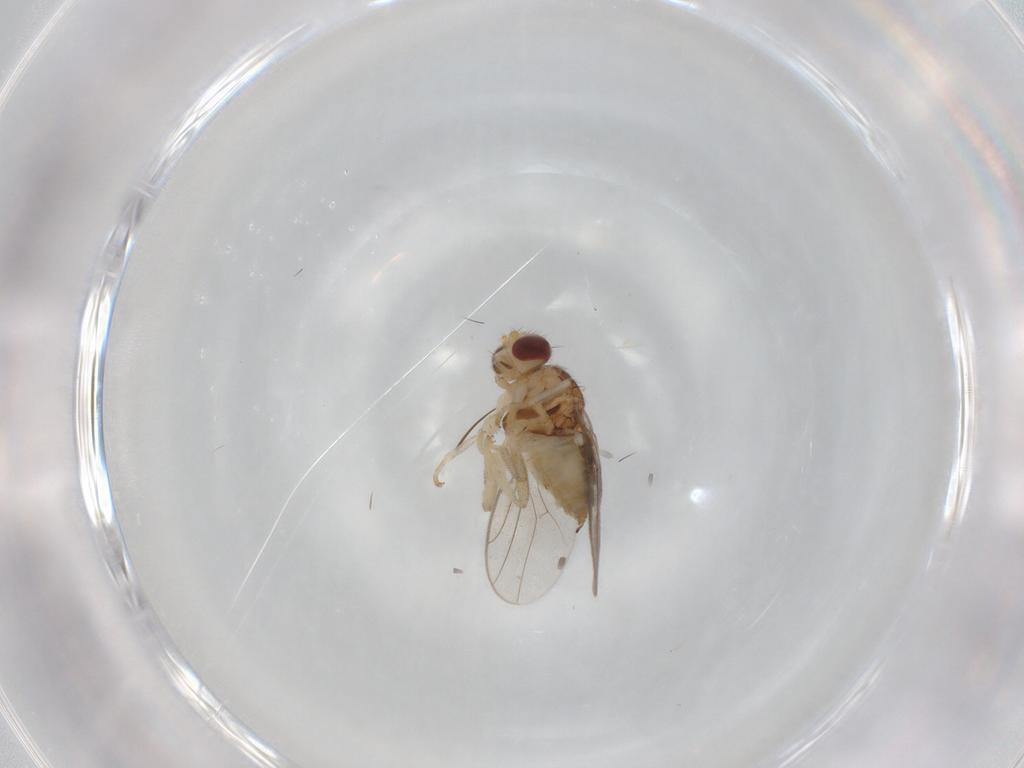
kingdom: Animalia
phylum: Arthropoda
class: Insecta
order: Diptera
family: Chloropidae
